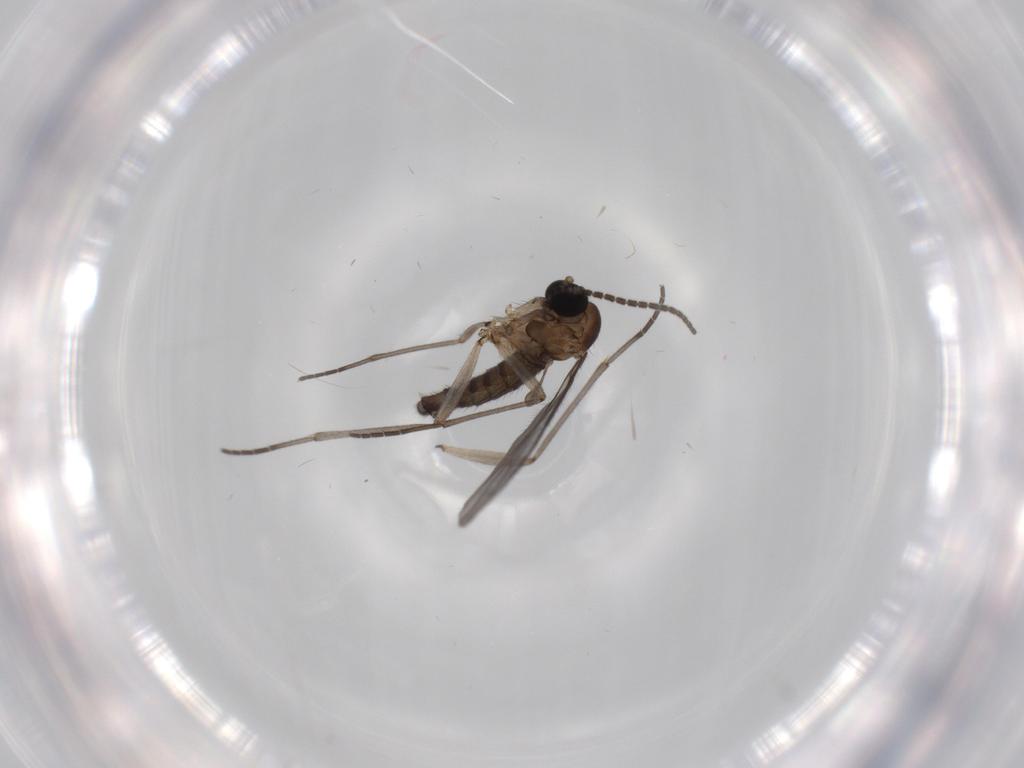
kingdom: Animalia
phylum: Arthropoda
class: Insecta
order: Diptera
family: Sciaridae
